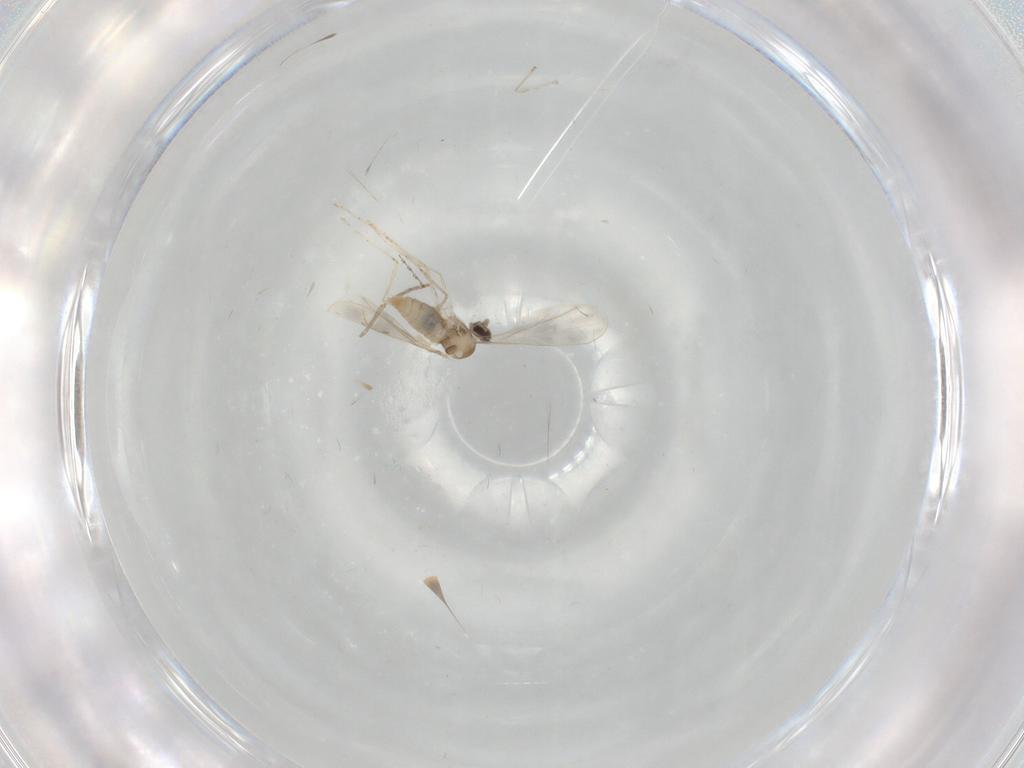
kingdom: Animalia
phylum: Arthropoda
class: Insecta
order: Diptera
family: Cecidomyiidae
